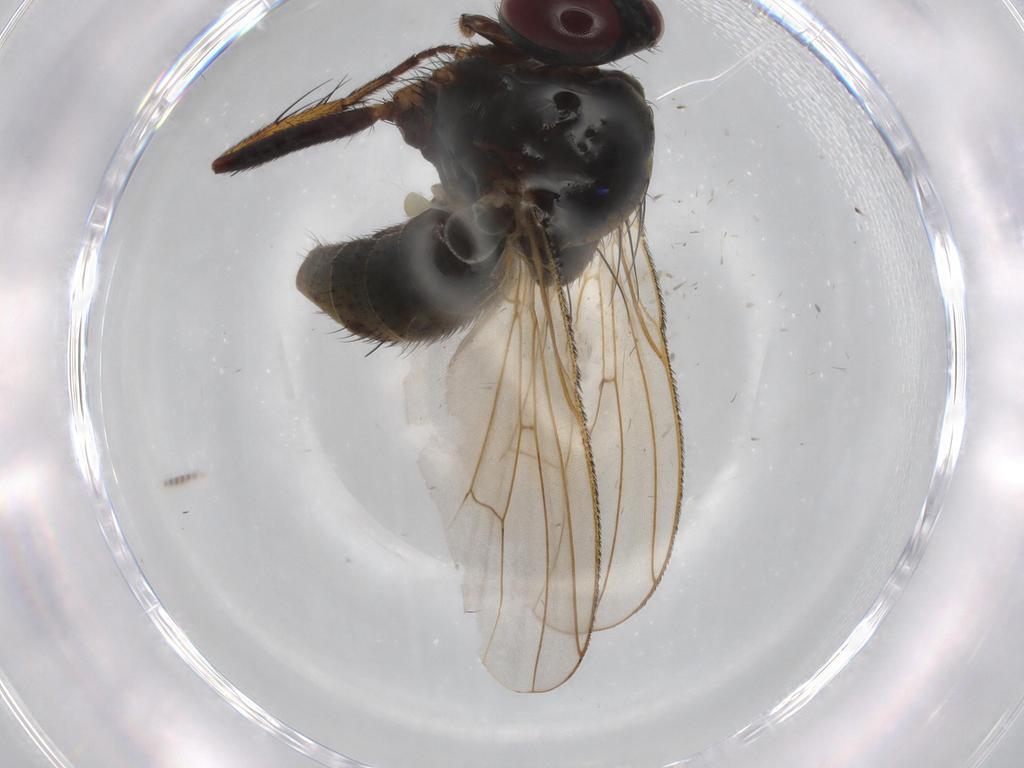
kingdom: Animalia
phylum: Arthropoda
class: Insecta
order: Diptera
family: Muscidae
